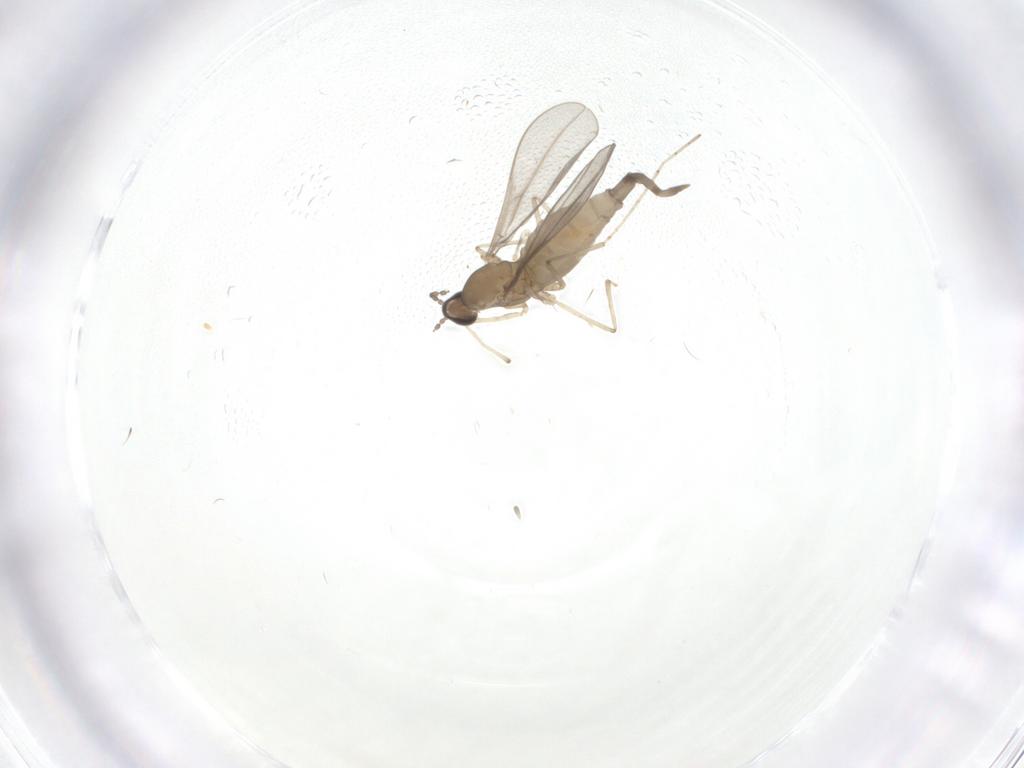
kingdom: Animalia
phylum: Arthropoda
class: Insecta
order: Diptera
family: Cecidomyiidae
